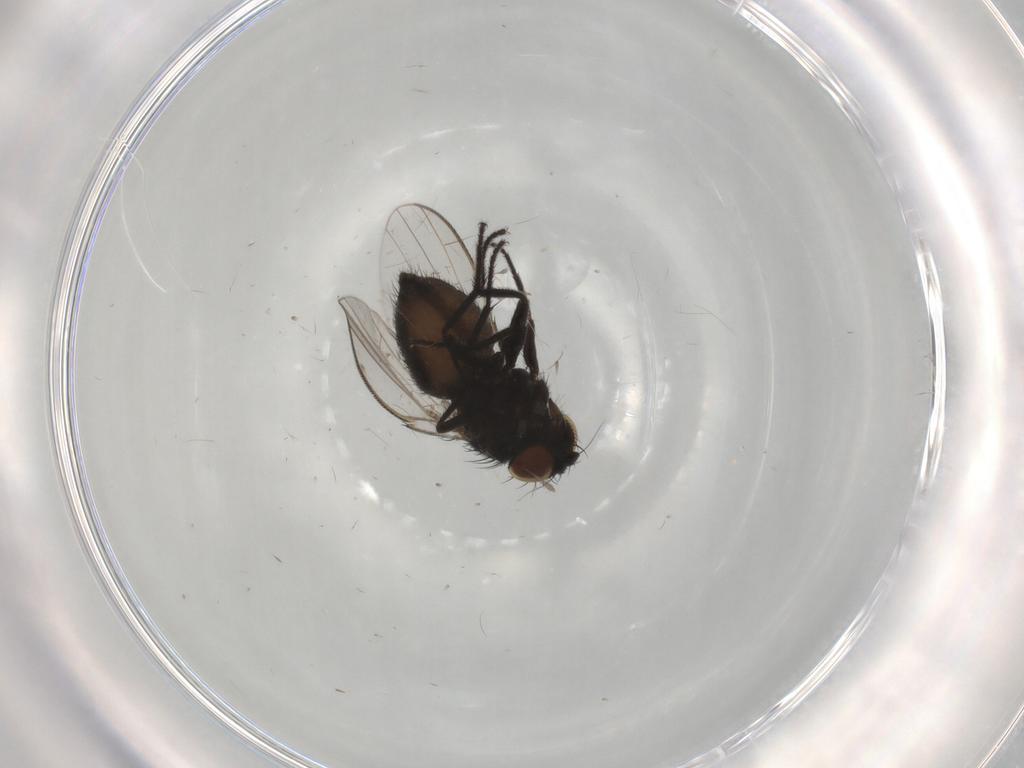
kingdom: Animalia
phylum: Arthropoda
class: Insecta
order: Diptera
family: Milichiidae
